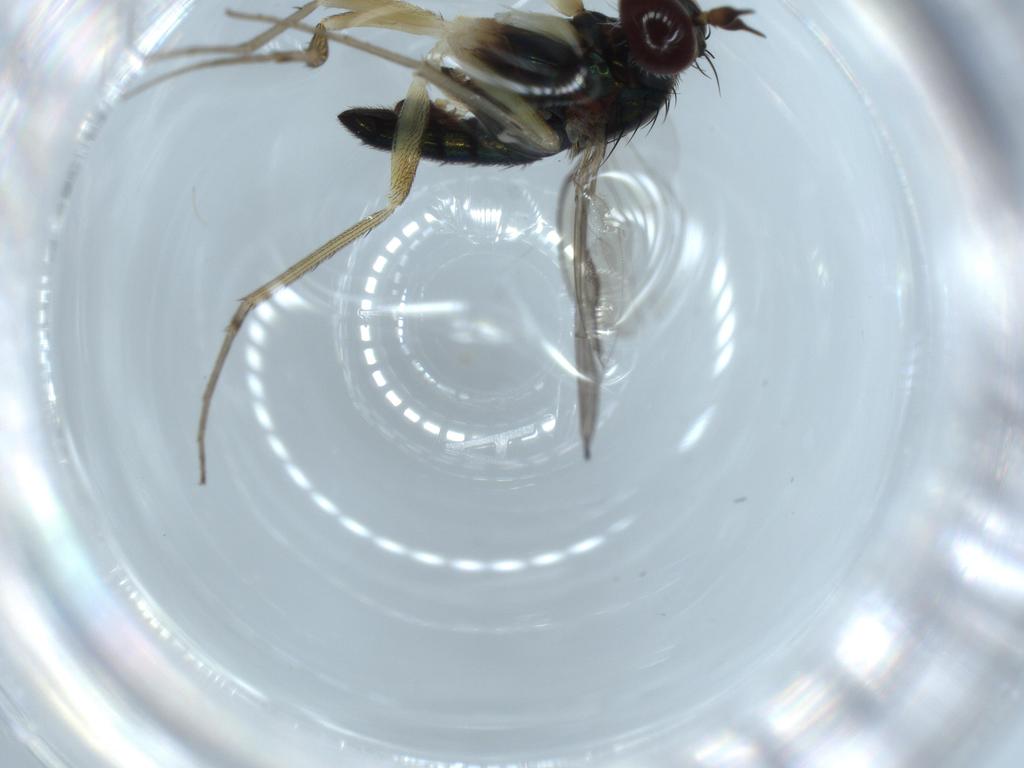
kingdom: Animalia
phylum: Arthropoda
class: Insecta
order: Diptera
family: Dolichopodidae
